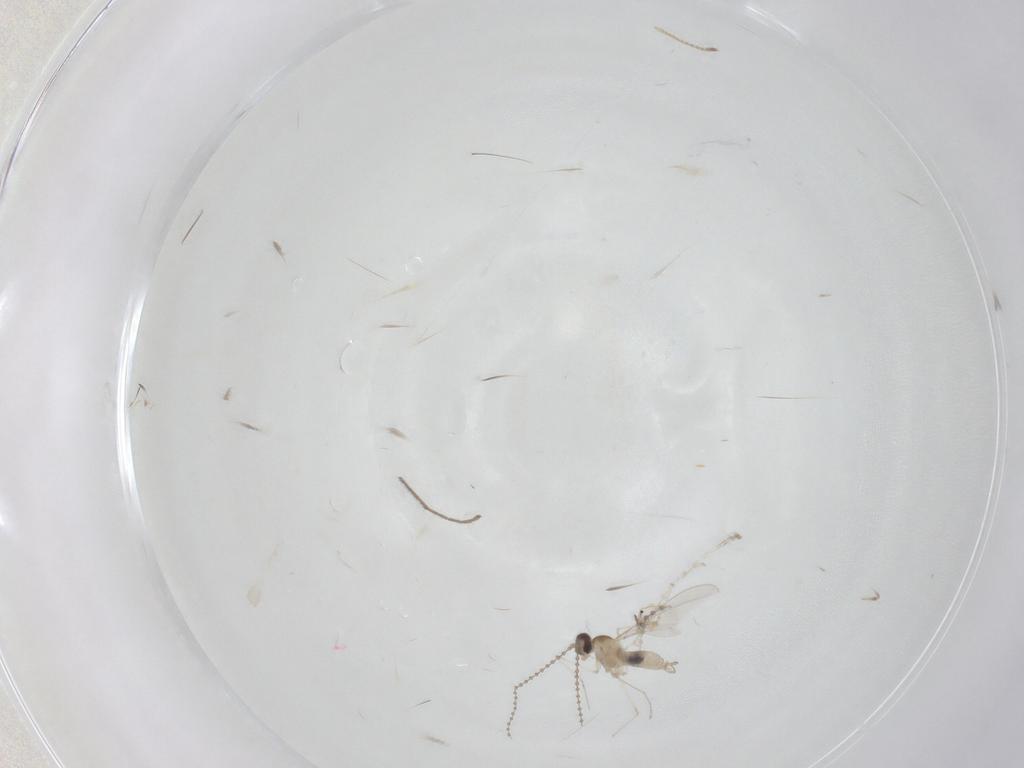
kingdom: Animalia
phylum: Arthropoda
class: Insecta
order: Diptera
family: Chironomidae
